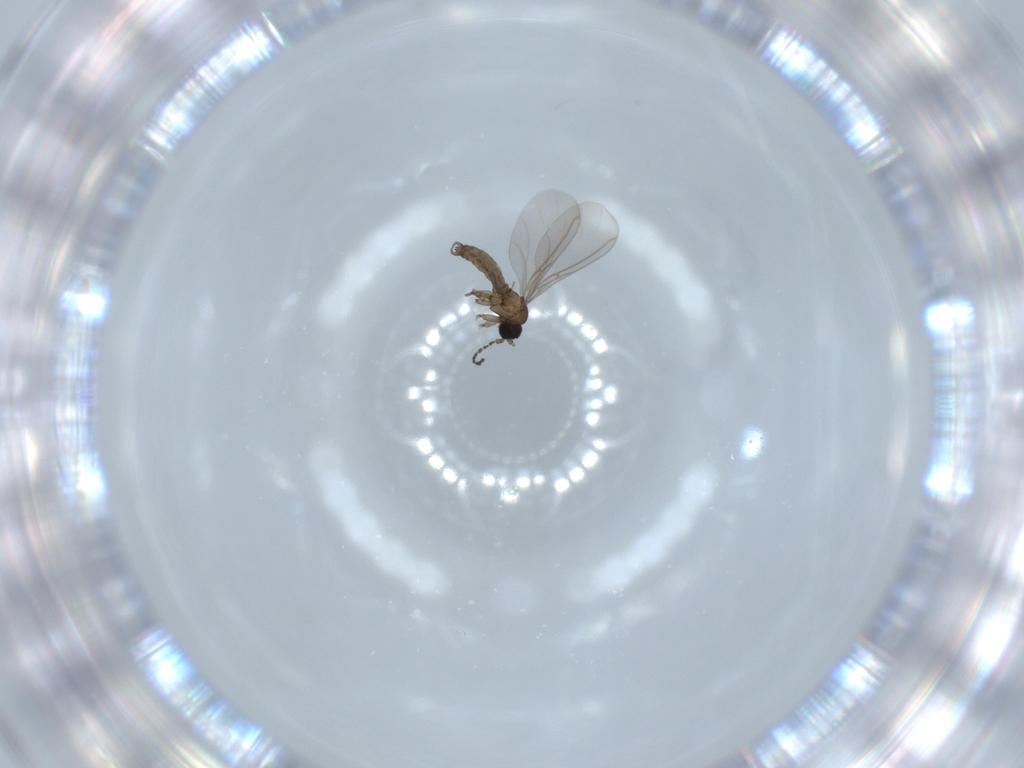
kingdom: Animalia
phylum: Arthropoda
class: Insecta
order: Diptera
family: Sciaridae
